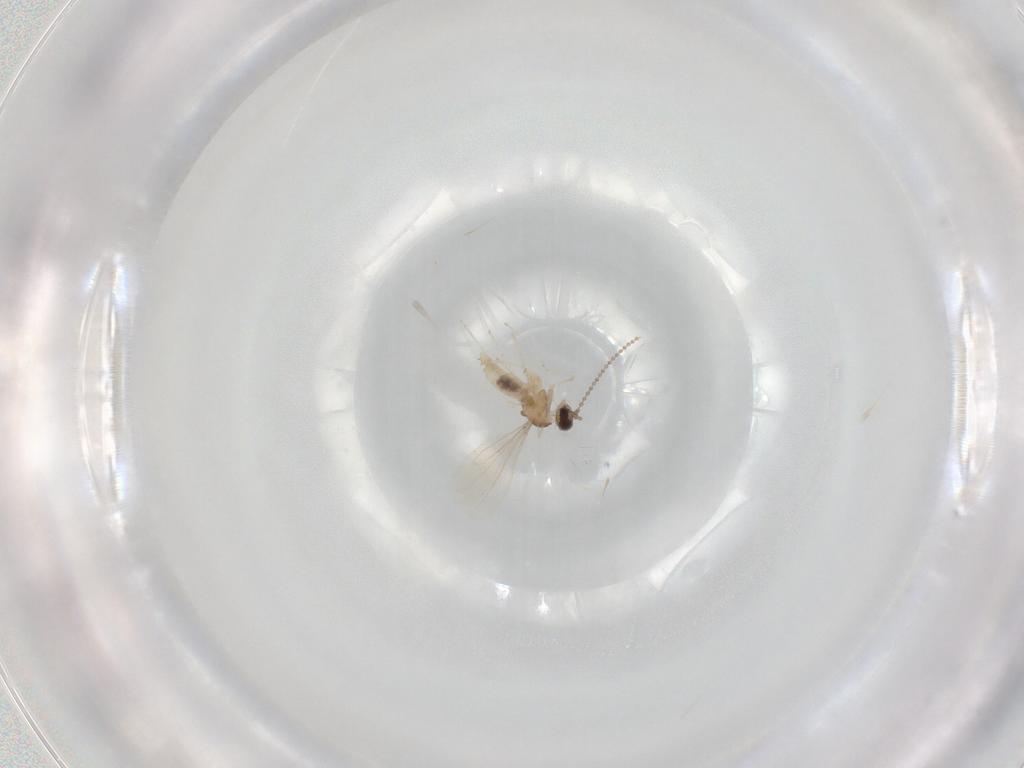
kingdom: Animalia
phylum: Arthropoda
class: Insecta
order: Diptera
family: Cecidomyiidae
